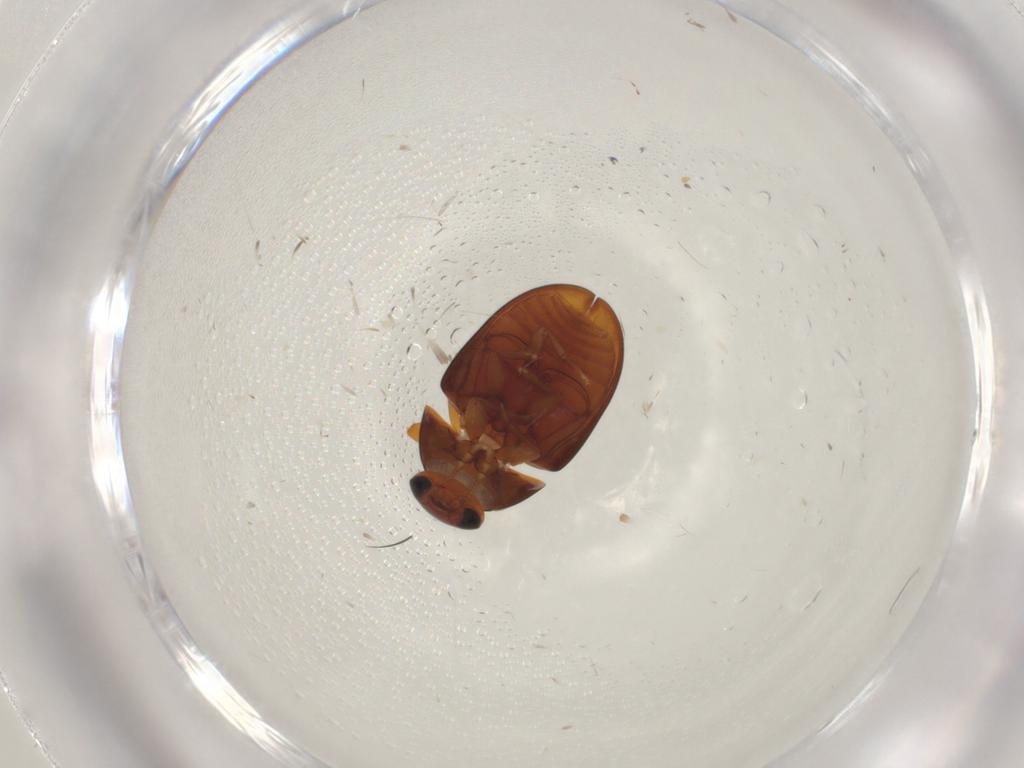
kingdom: Animalia
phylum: Arthropoda
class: Insecta
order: Coleoptera
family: Phalacridae
